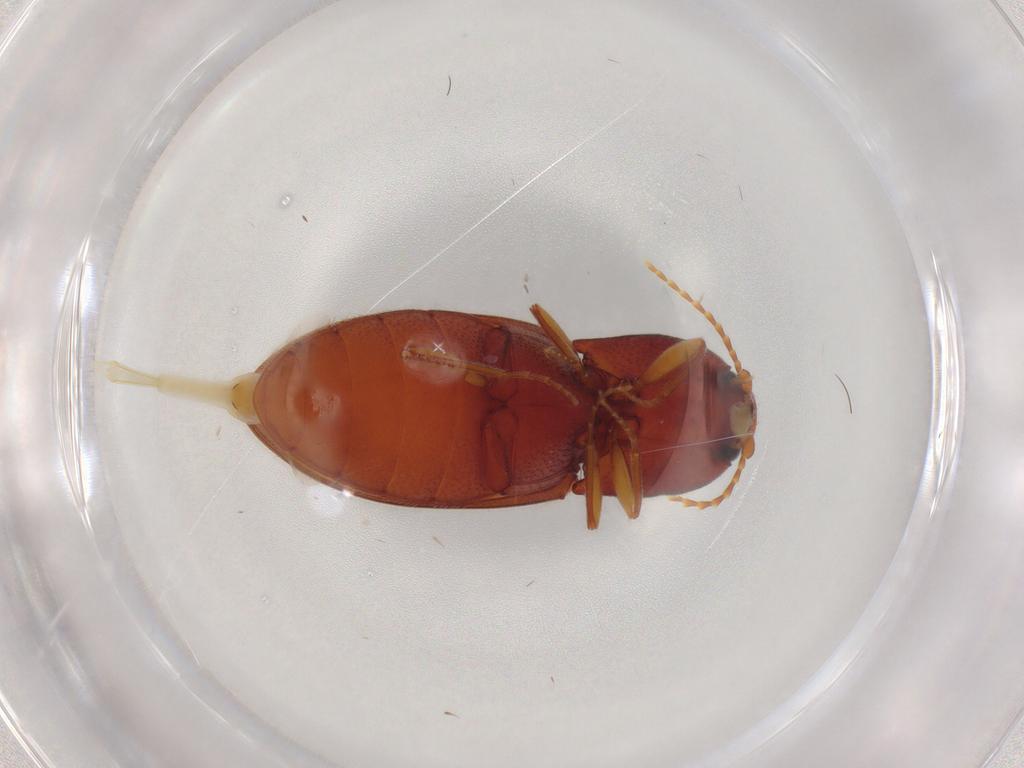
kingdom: Animalia
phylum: Arthropoda
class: Insecta
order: Coleoptera
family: Elateridae
